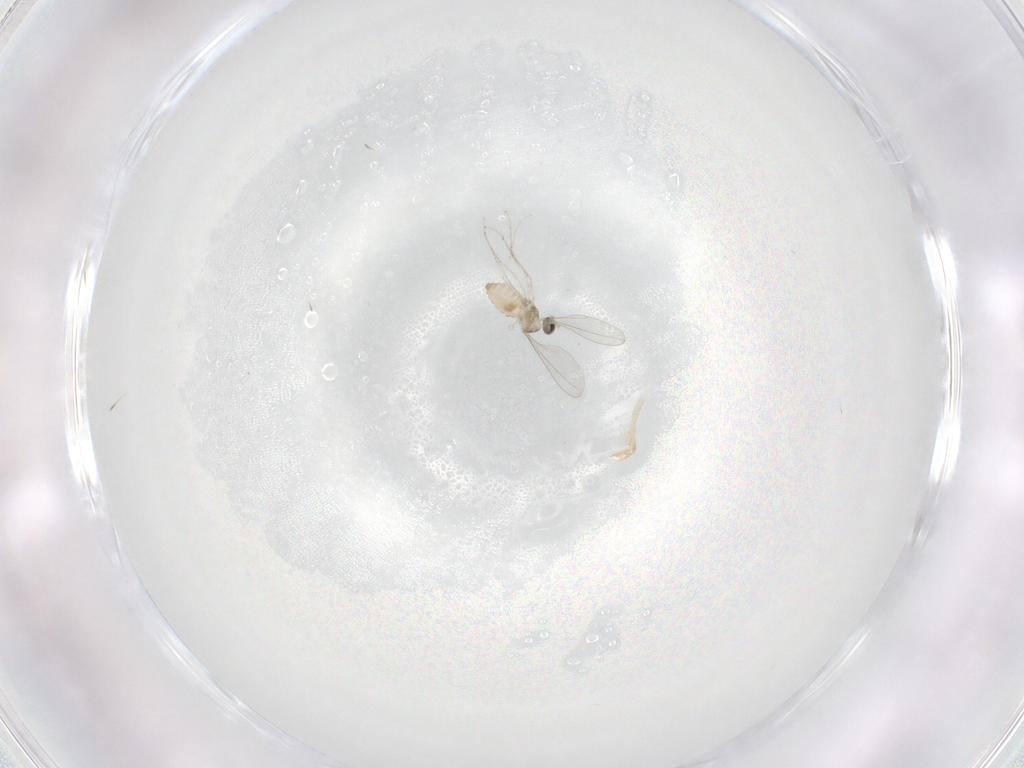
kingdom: Animalia
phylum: Arthropoda
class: Insecta
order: Diptera
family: Cecidomyiidae
